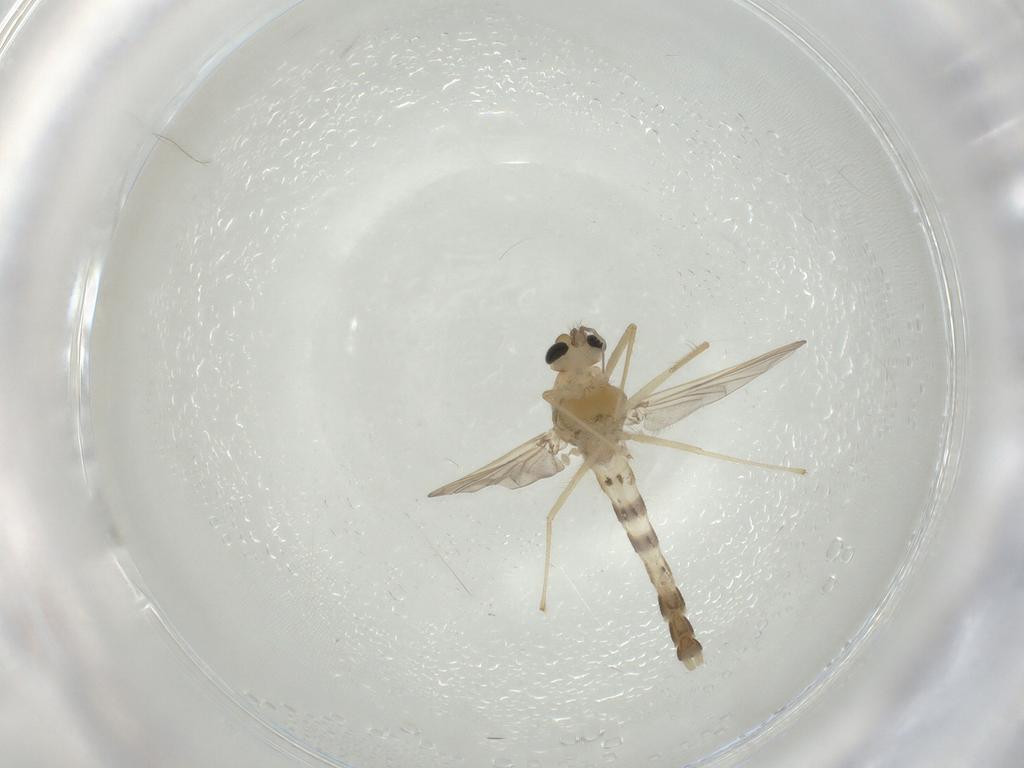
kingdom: Animalia
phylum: Arthropoda
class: Insecta
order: Diptera
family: Chironomidae
